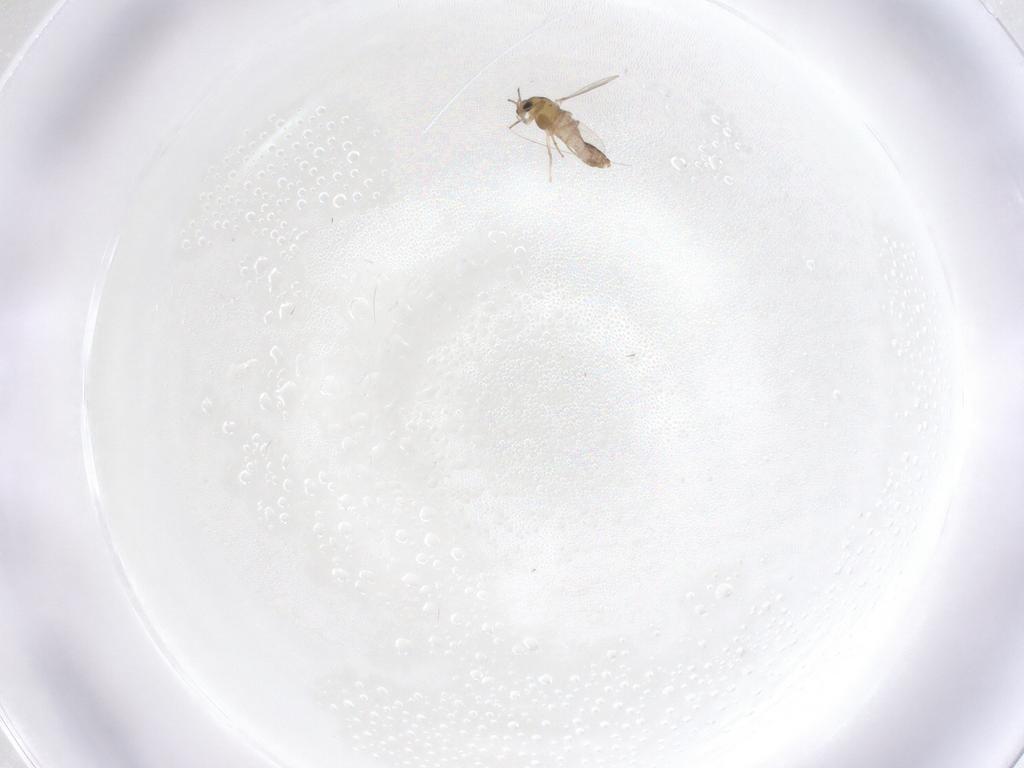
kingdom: Animalia
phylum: Arthropoda
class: Insecta
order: Diptera
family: Chironomidae
